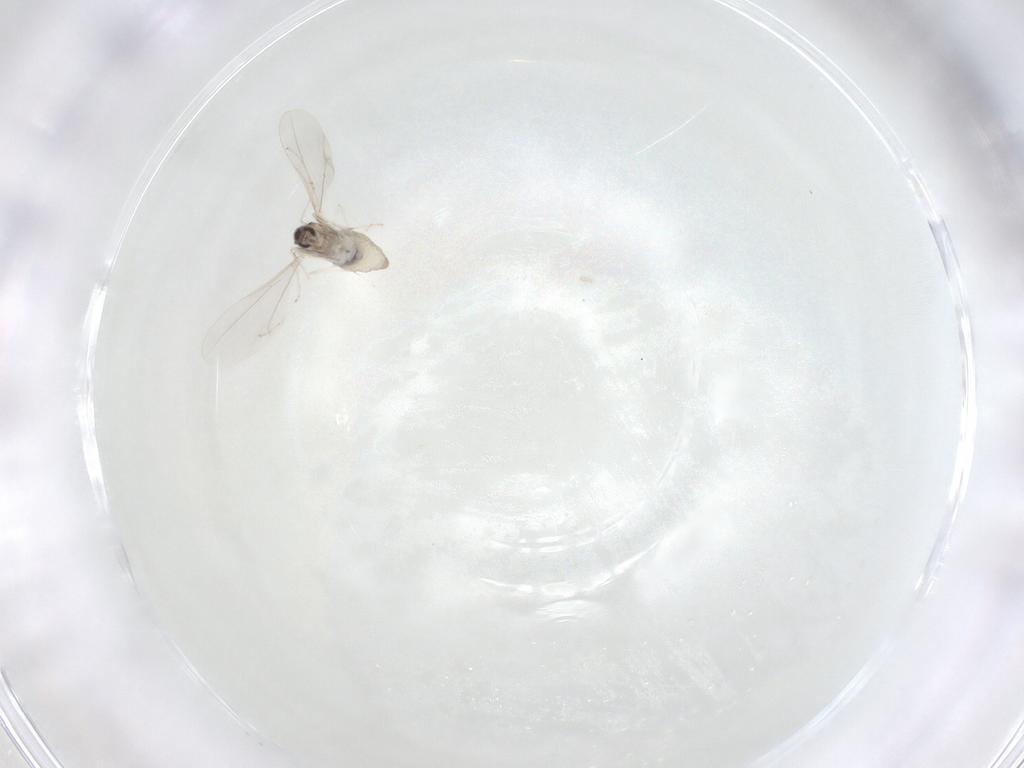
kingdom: Animalia
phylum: Arthropoda
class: Insecta
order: Diptera
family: Cecidomyiidae
